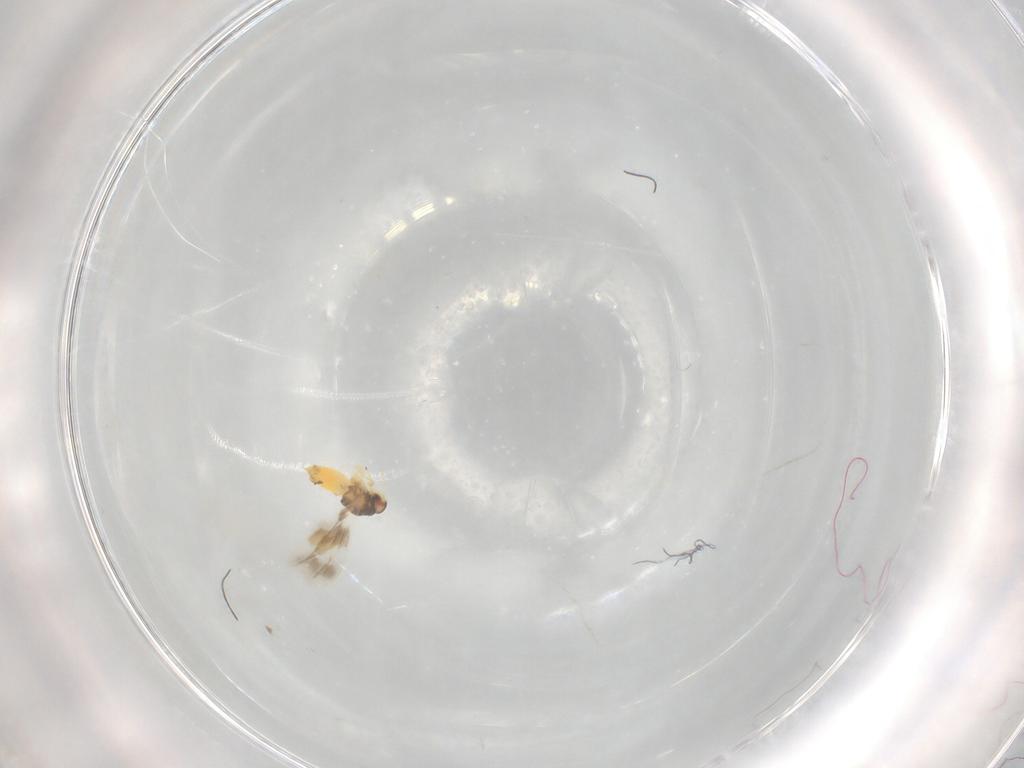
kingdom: Animalia
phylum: Arthropoda
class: Insecta
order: Hemiptera
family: Aleyrodidae
